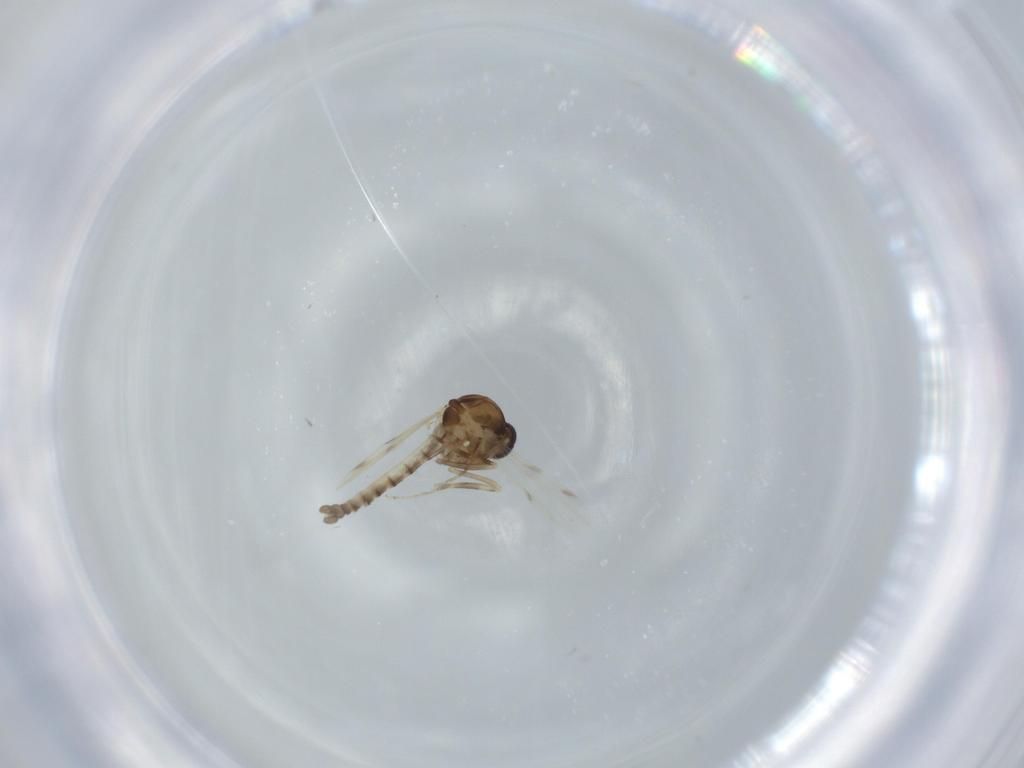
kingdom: Animalia
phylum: Arthropoda
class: Insecta
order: Diptera
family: Ceratopogonidae
